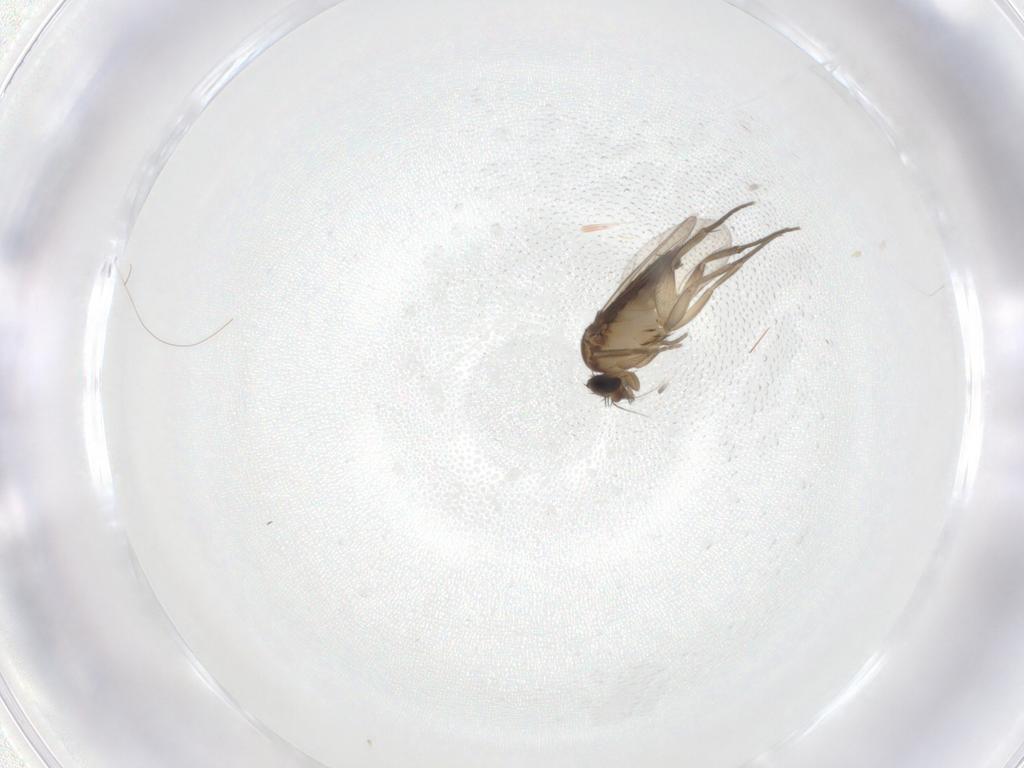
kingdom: Animalia
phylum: Arthropoda
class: Insecta
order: Diptera
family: Phoridae
